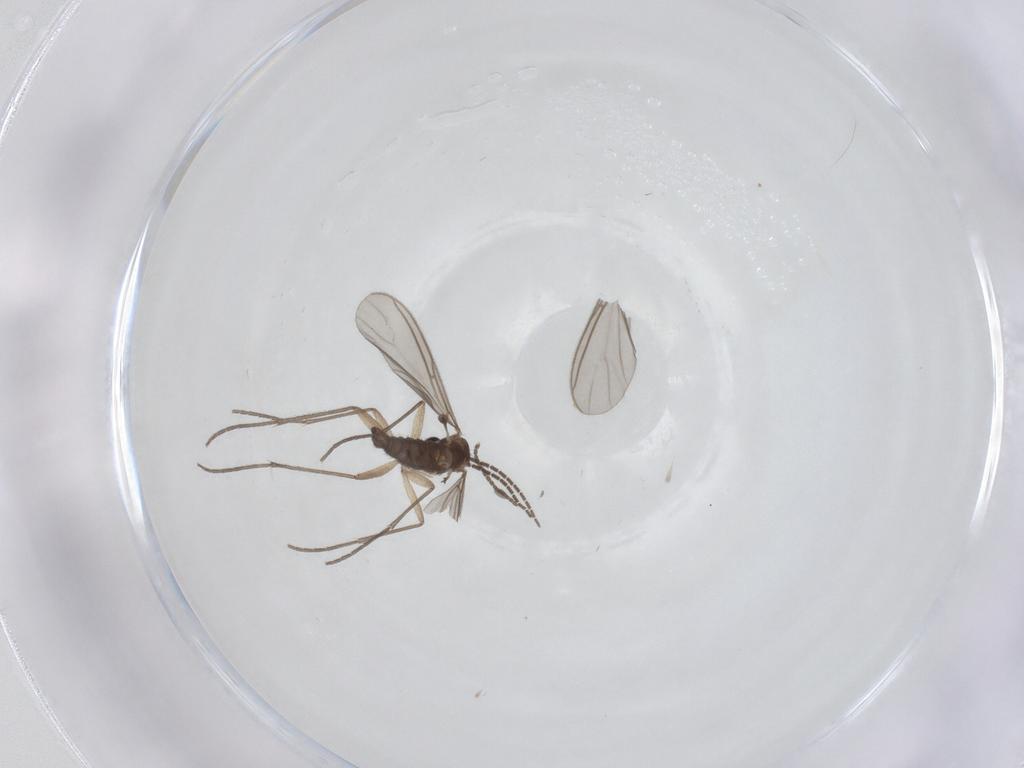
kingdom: Animalia
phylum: Arthropoda
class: Insecta
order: Diptera
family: Sciaridae
